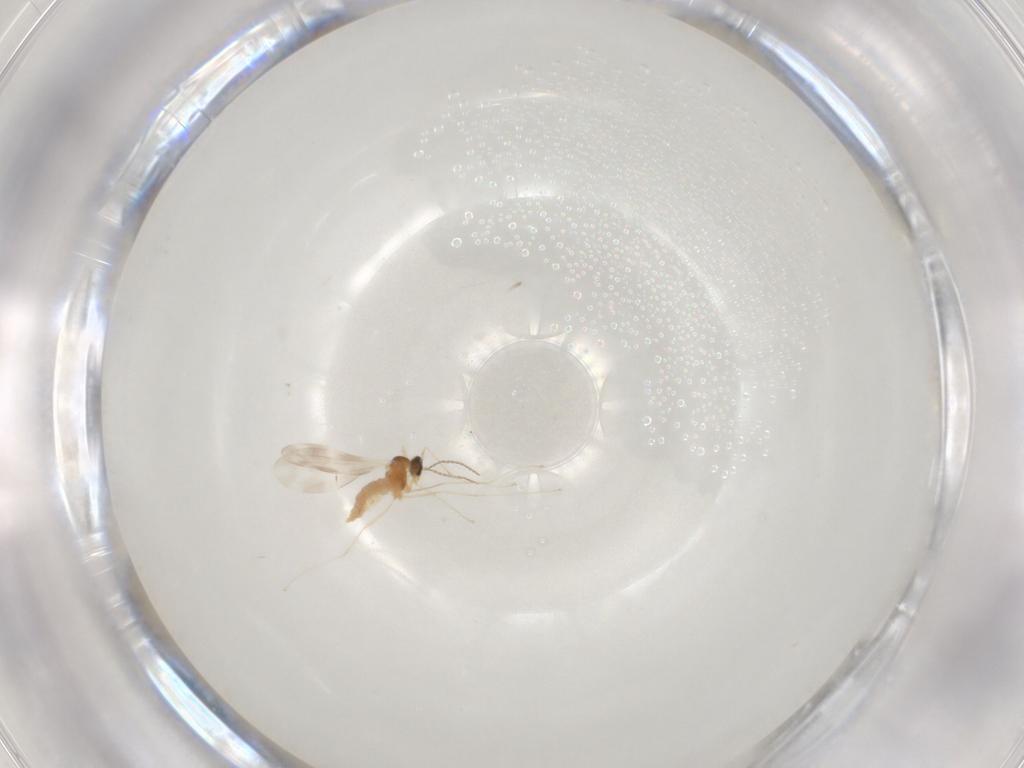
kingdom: Animalia
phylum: Arthropoda
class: Insecta
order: Diptera
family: Cecidomyiidae
